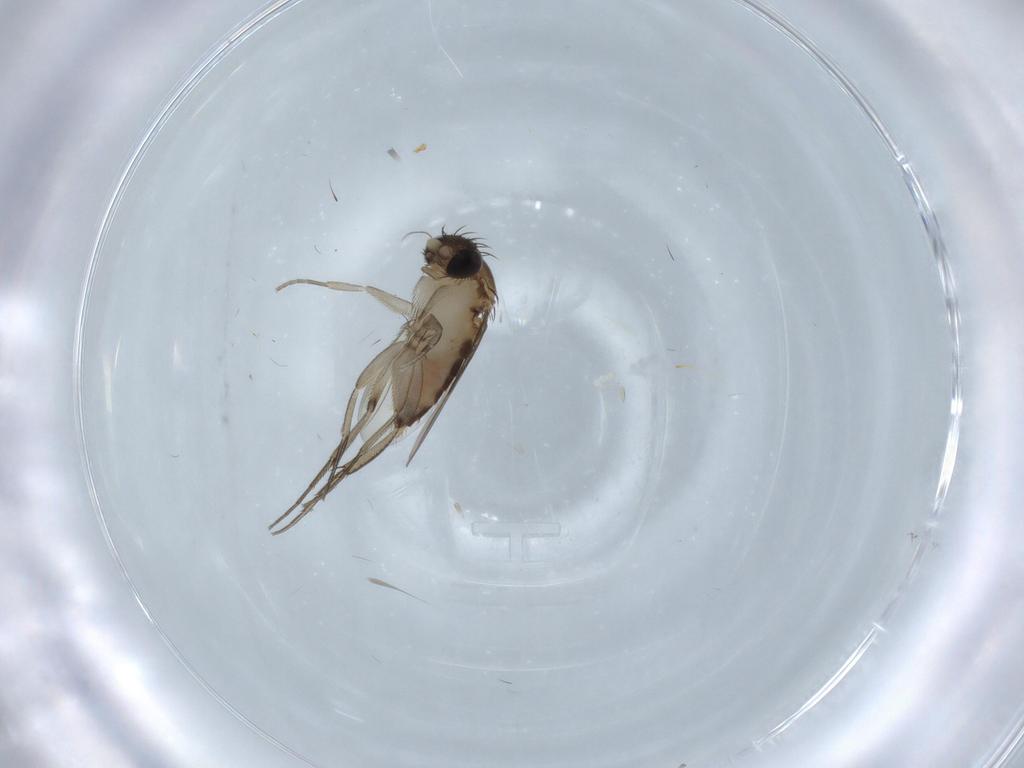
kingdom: Animalia
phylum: Arthropoda
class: Insecta
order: Diptera
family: Phoridae
